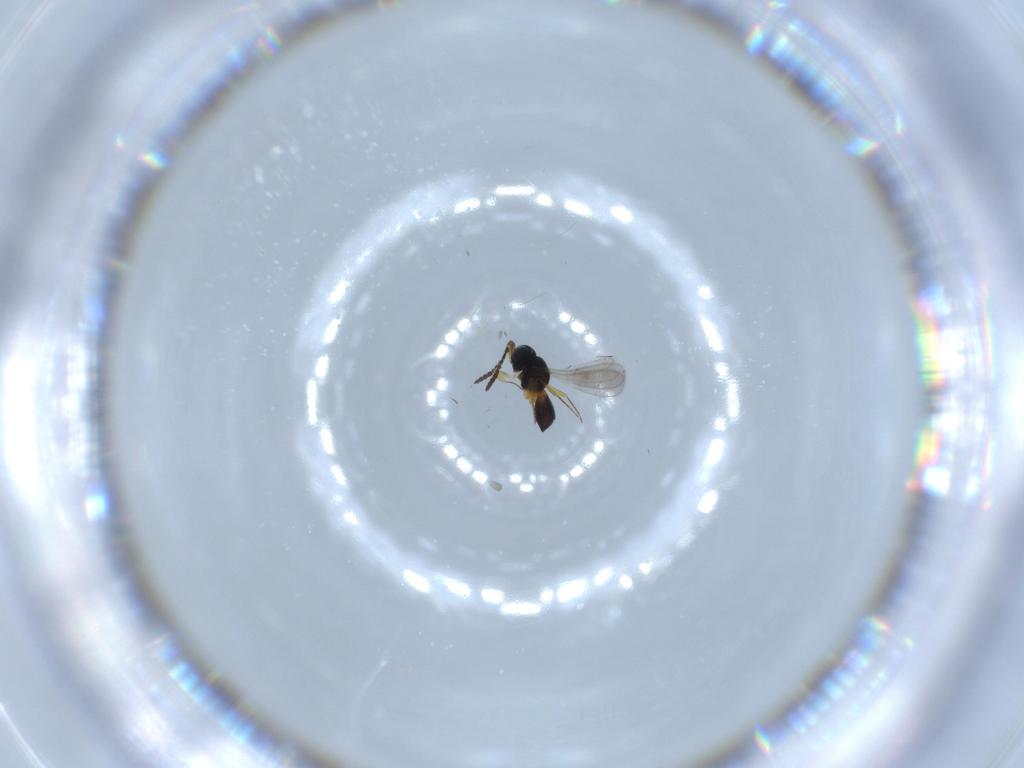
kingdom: Animalia
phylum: Arthropoda
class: Insecta
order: Hymenoptera
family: Scelionidae
